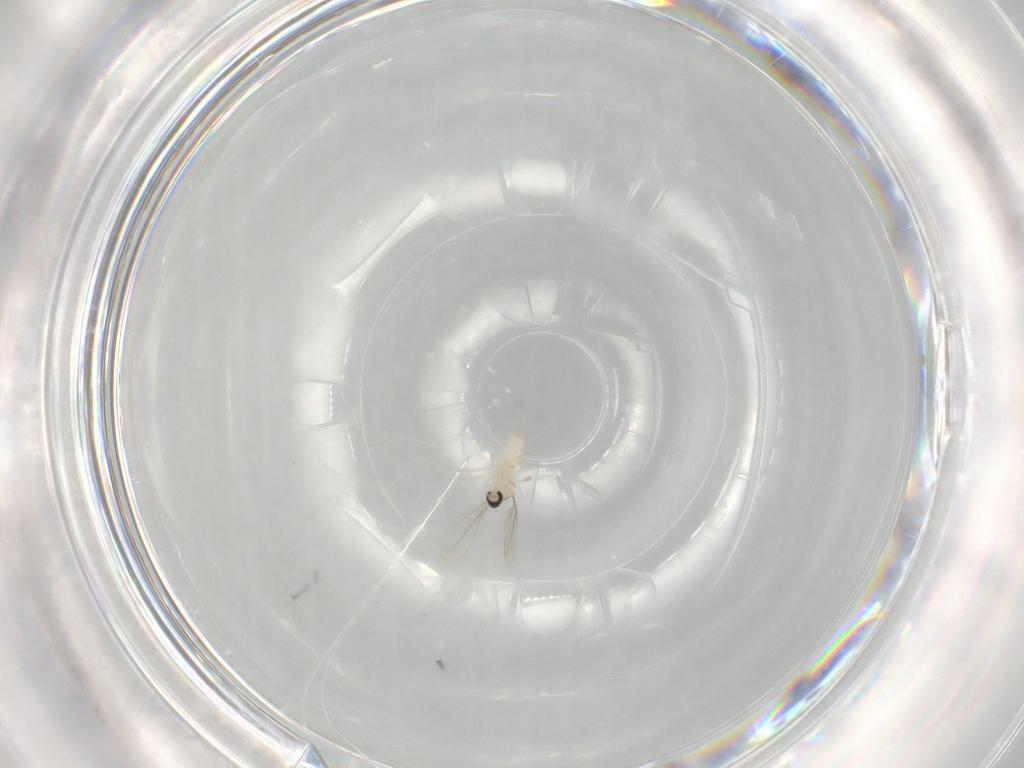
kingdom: Animalia
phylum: Arthropoda
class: Insecta
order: Diptera
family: Cecidomyiidae
